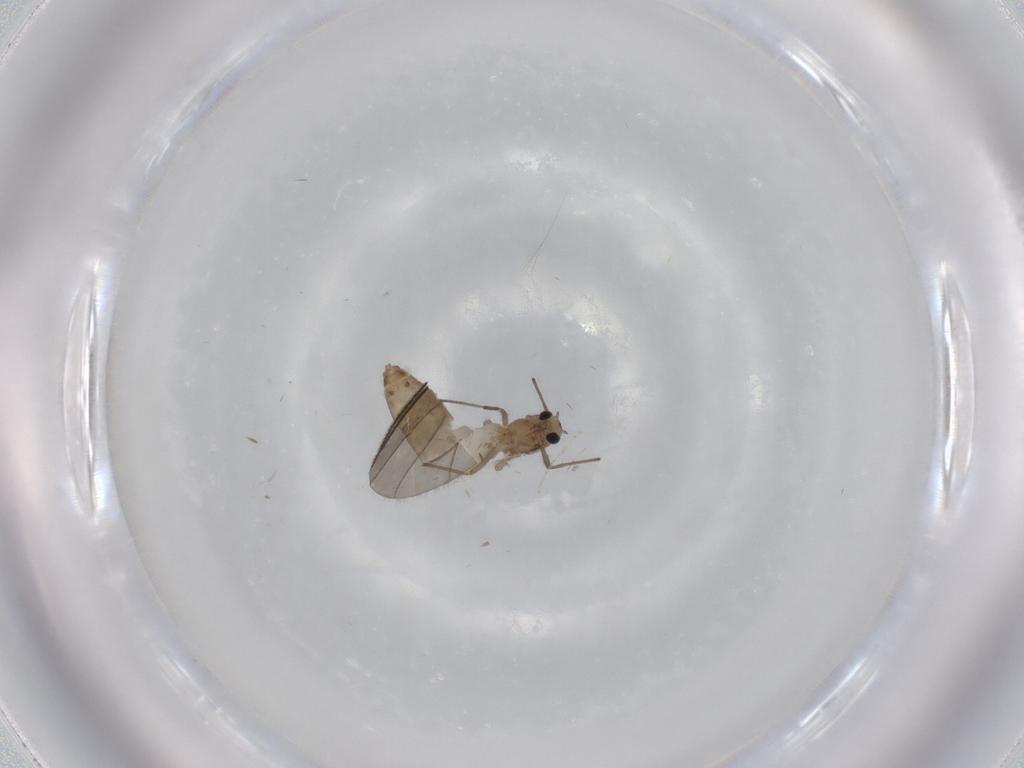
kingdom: Animalia
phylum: Arthropoda
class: Insecta
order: Diptera
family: Chironomidae
